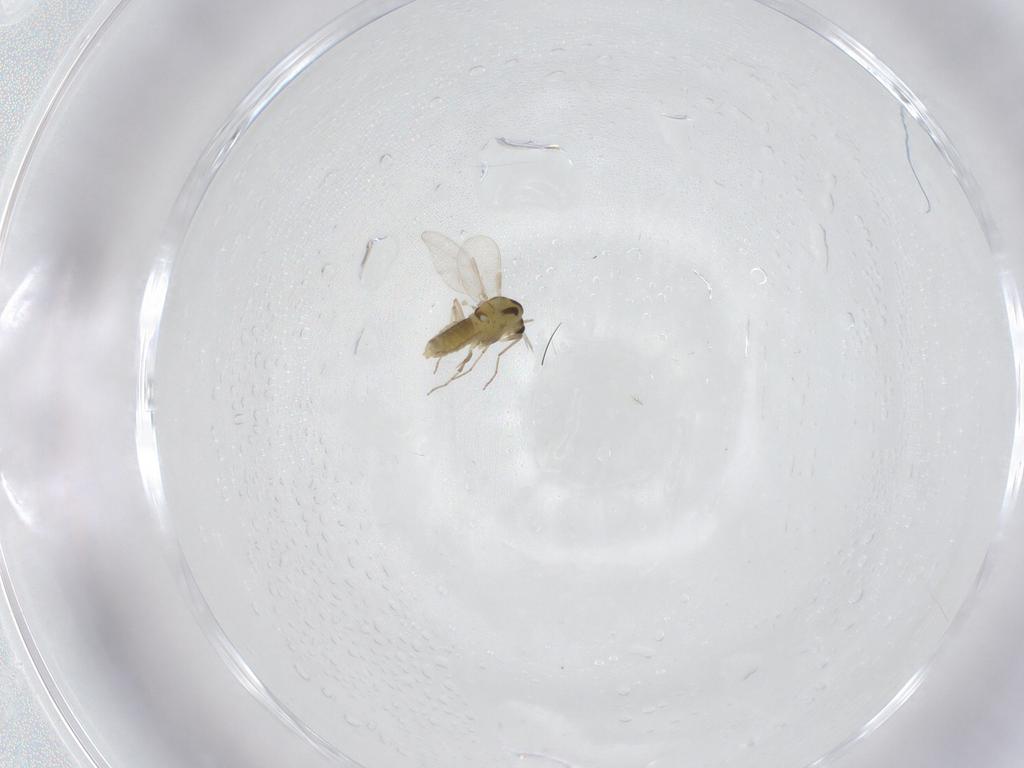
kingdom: Animalia
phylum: Arthropoda
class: Insecta
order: Diptera
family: Chironomidae
